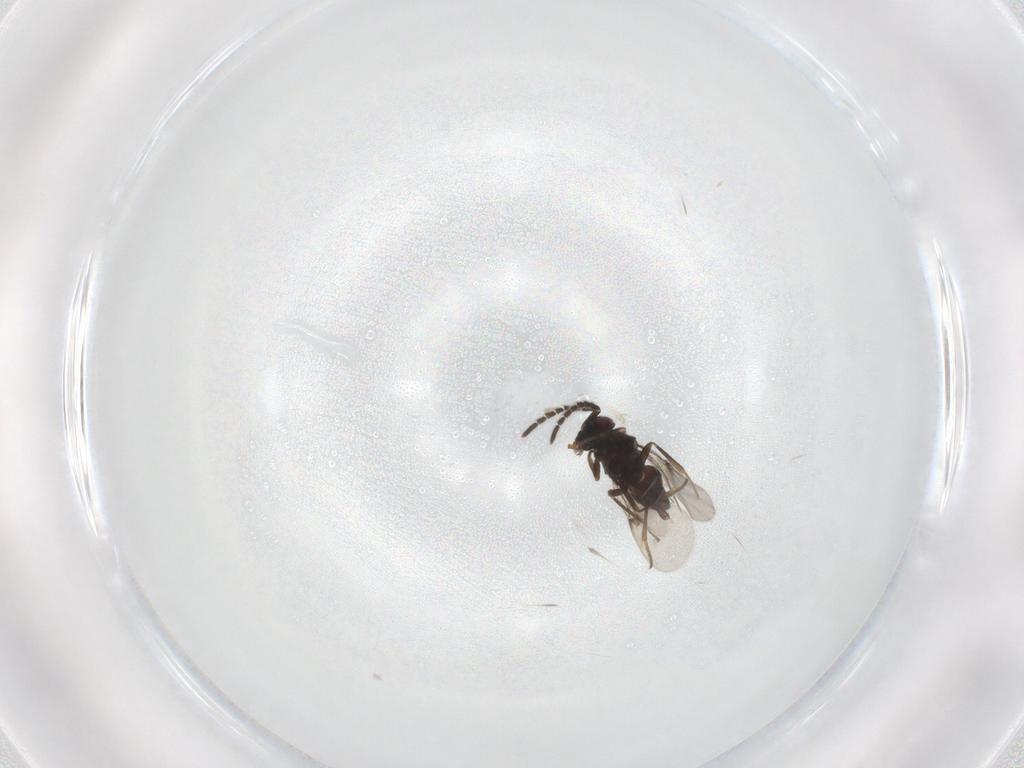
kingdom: Animalia
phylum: Arthropoda
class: Insecta
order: Hymenoptera
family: Encyrtidae
